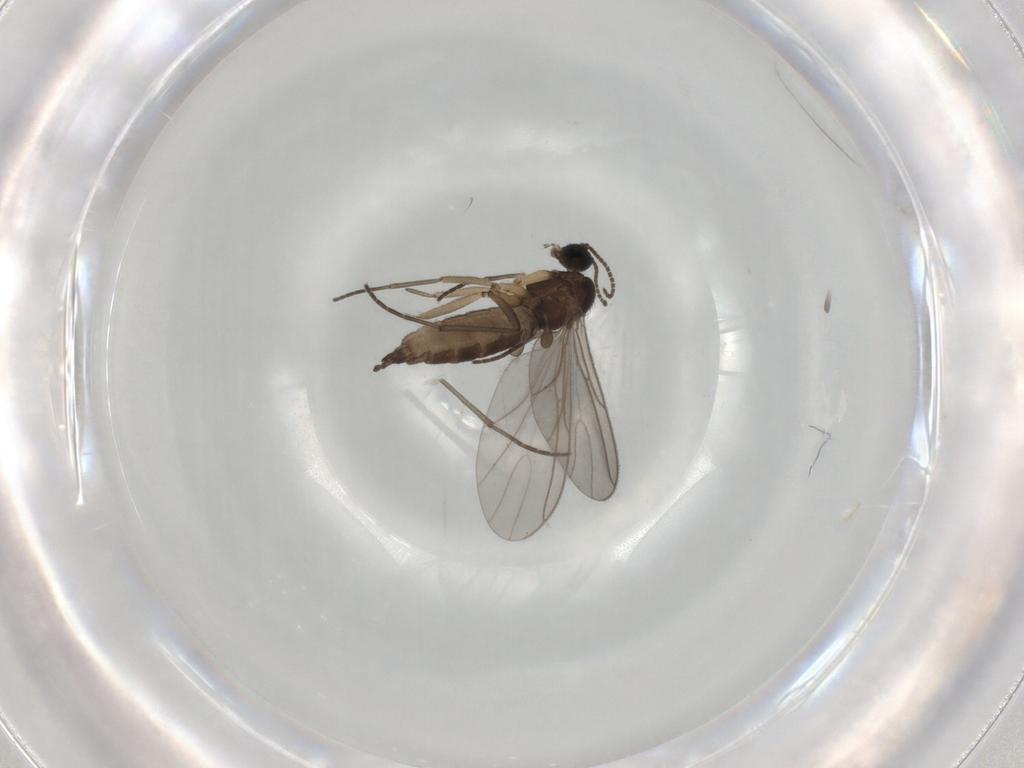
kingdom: Animalia
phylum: Arthropoda
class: Insecta
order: Diptera
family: Sciaridae
